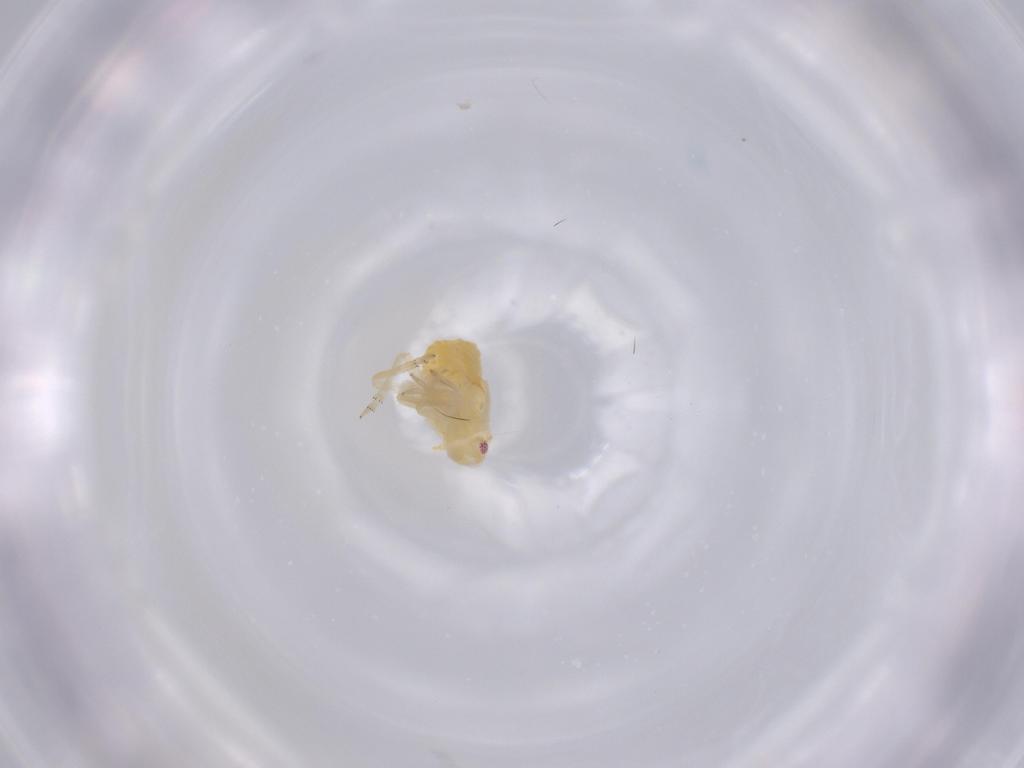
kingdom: Animalia
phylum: Arthropoda
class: Insecta
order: Hemiptera
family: Flatidae
